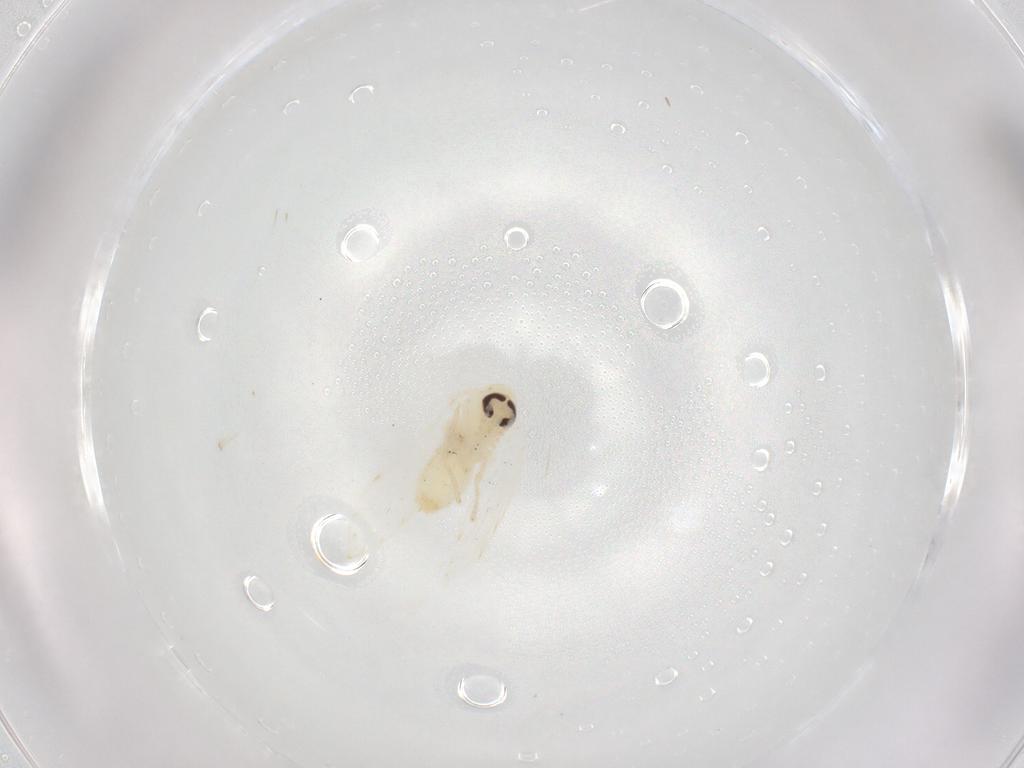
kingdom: Animalia
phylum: Arthropoda
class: Insecta
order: Diptera
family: Psychodidae
